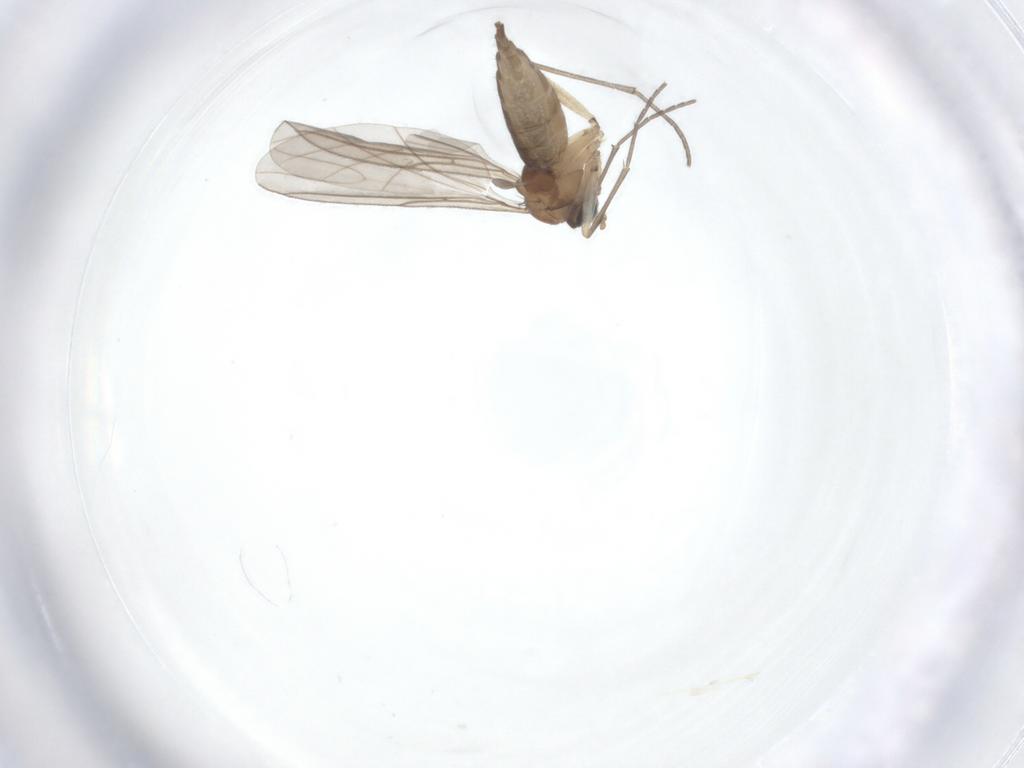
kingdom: Animalia
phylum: Arthropoda
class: Insecta
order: Diptera
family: Sciaridae
